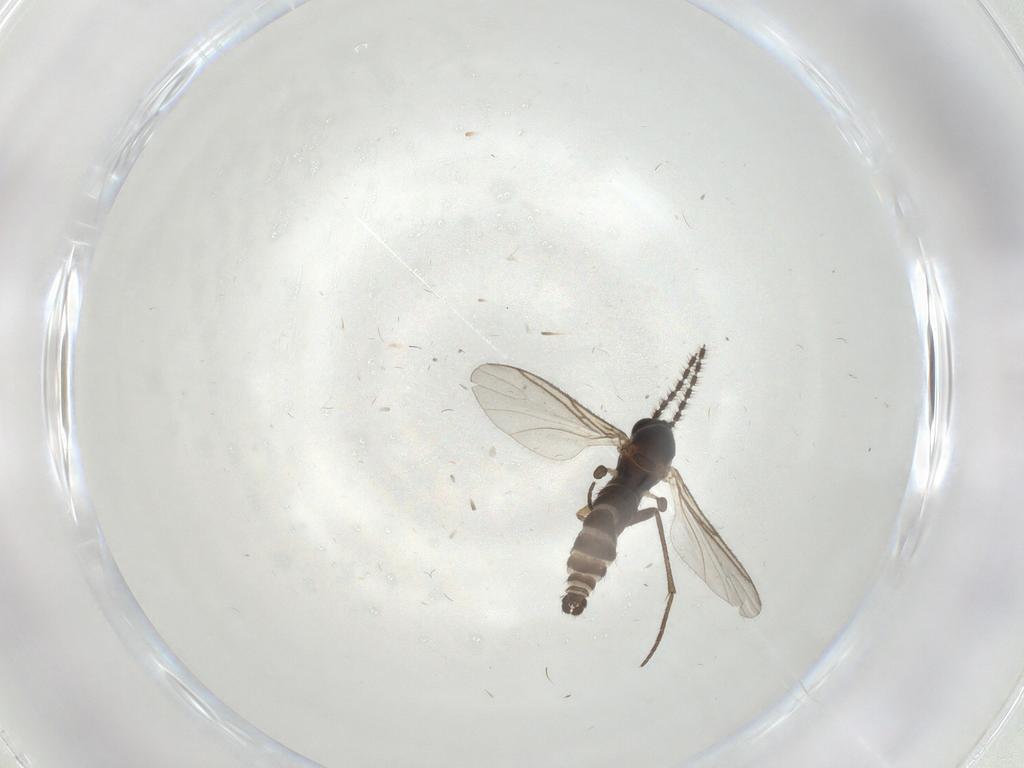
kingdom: Animalia
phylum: Arthropoda
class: Insecta
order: Diptera
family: Sciaridae
